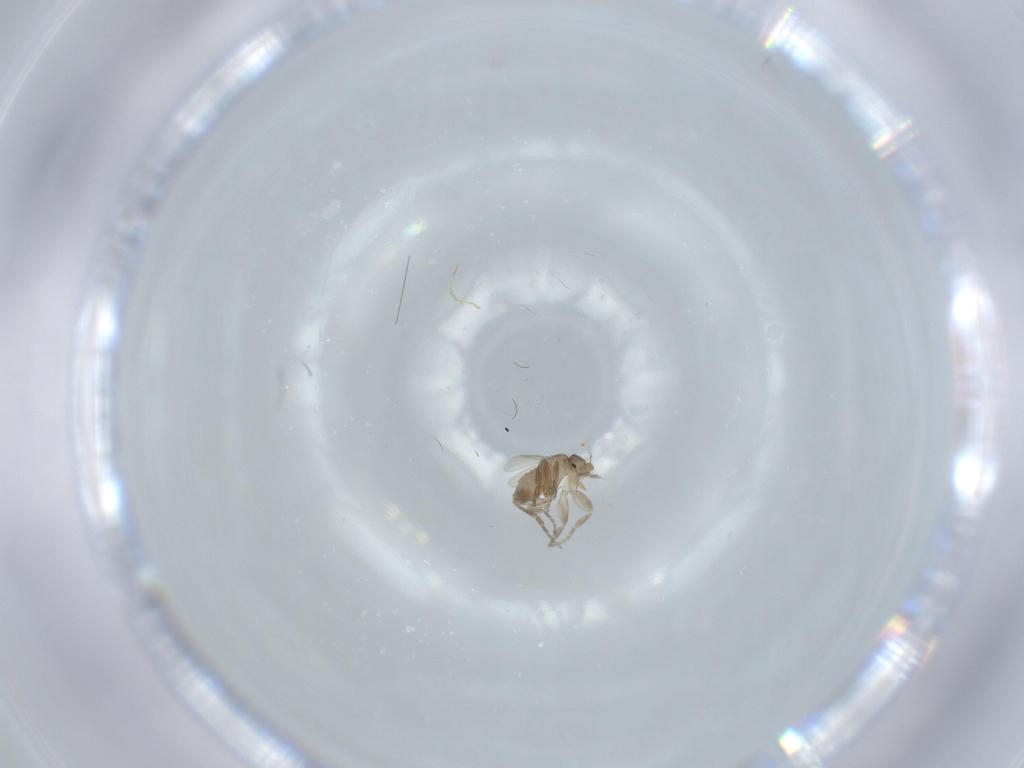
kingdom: Animalia
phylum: Arthropoda
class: Insecta
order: Diptera
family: Phoridae
